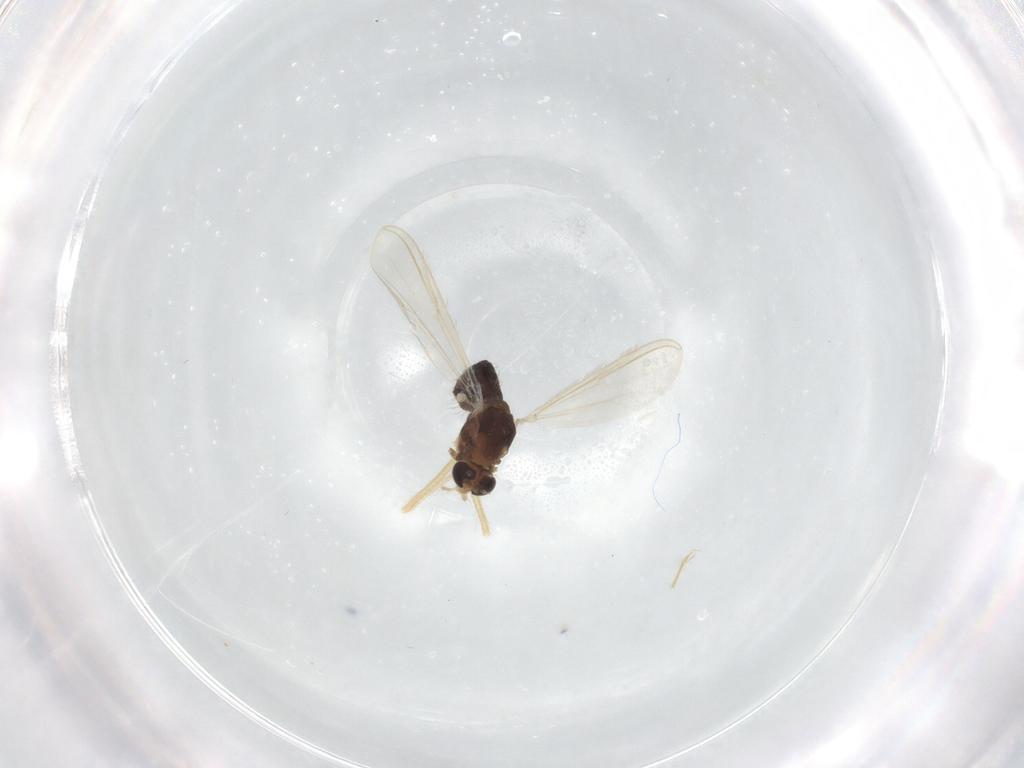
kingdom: Animalia
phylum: Arthropoda
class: Insecta
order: Diptera
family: Chironomidae
